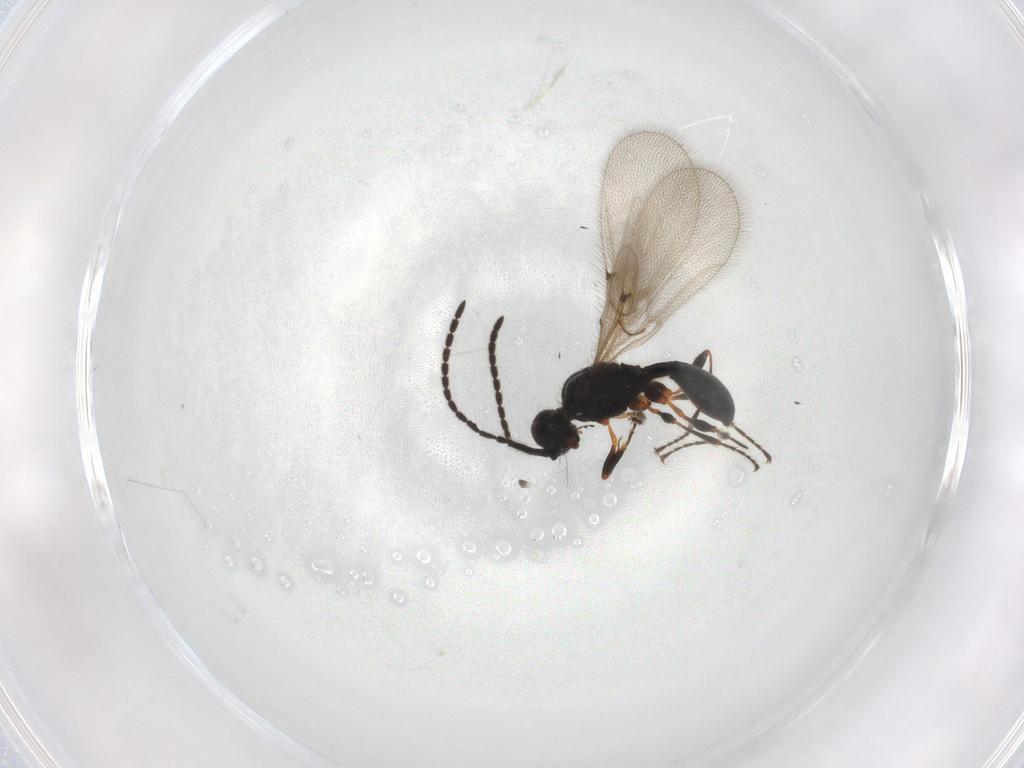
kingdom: Animalia
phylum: Arthropoda
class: Insecta
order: Hymenoptera
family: Diapriidae
